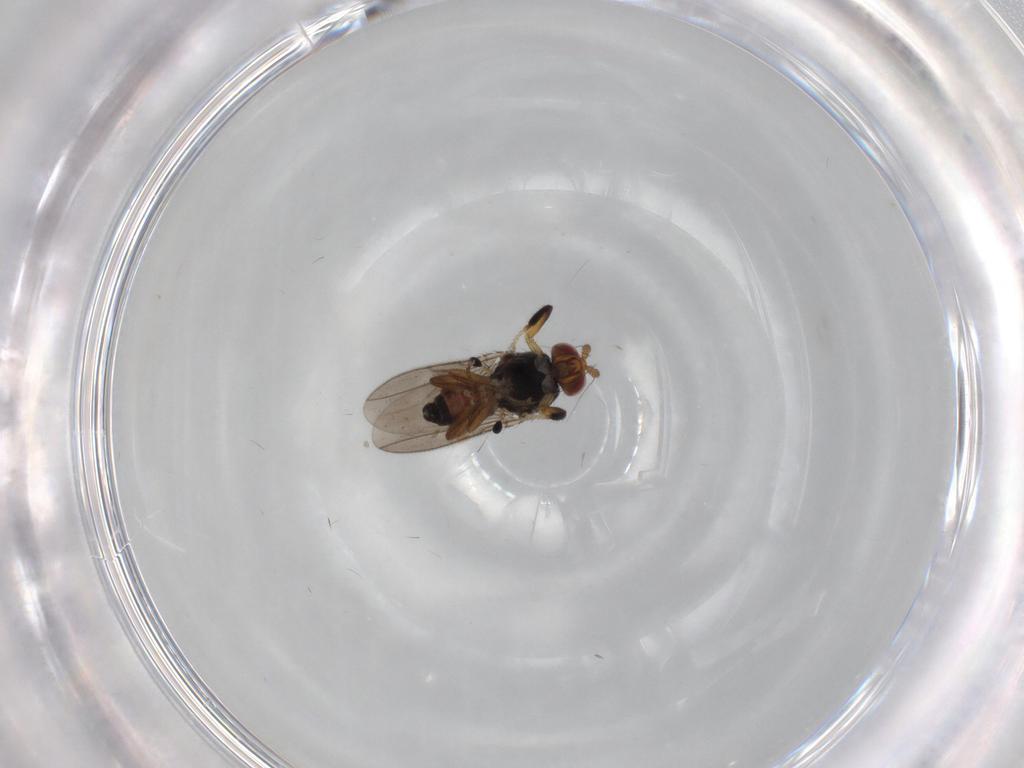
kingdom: Animalia
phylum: Arthropoda
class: Insecta
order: Diptera
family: Sphaeroceridae
